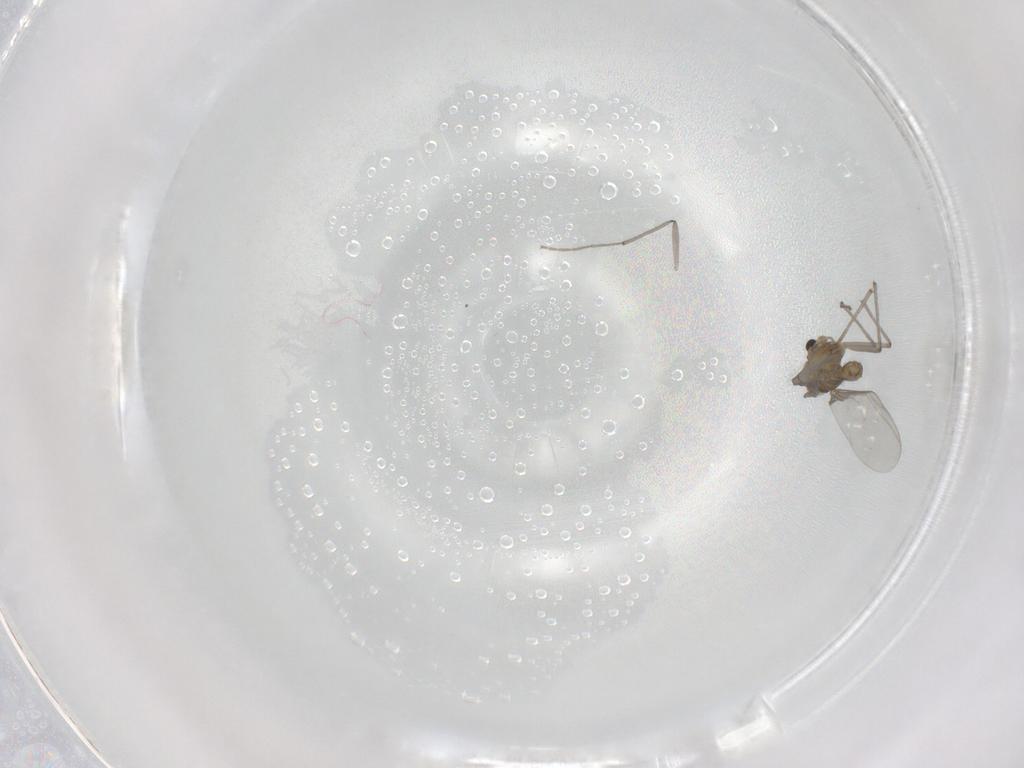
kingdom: Animalia
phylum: Arthropoda
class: Insecta
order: Diptera
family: Chironomidae
